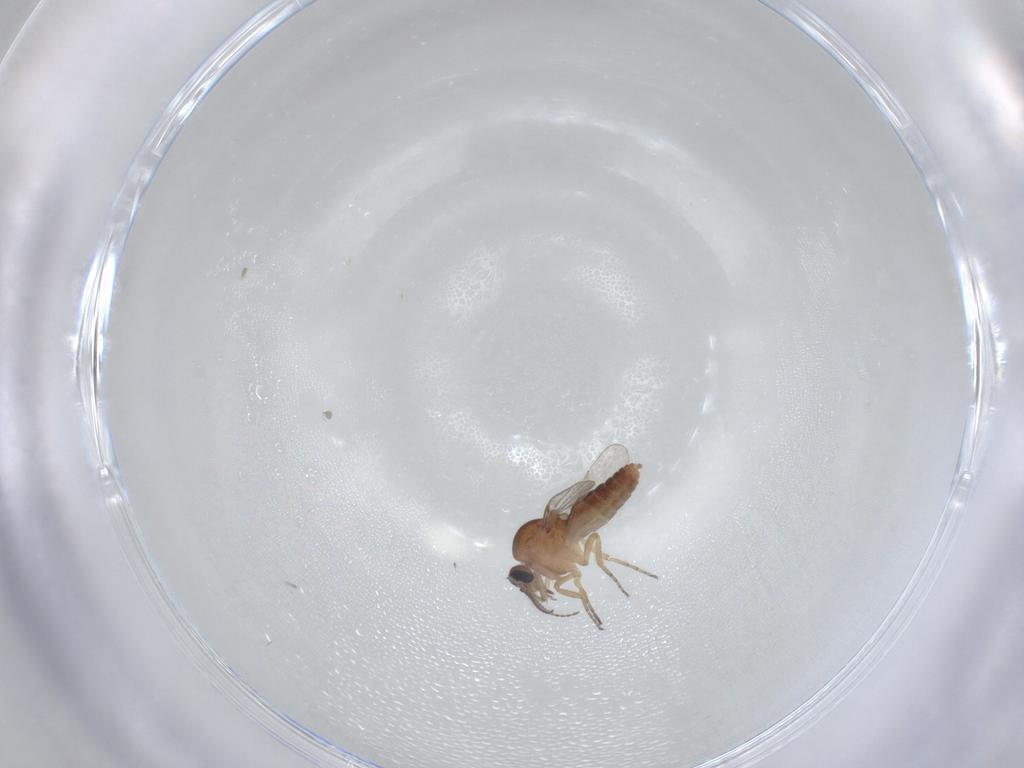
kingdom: Animalia
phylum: Arthropoda
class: Insecta
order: Diptera
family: Ceratopogonidae
